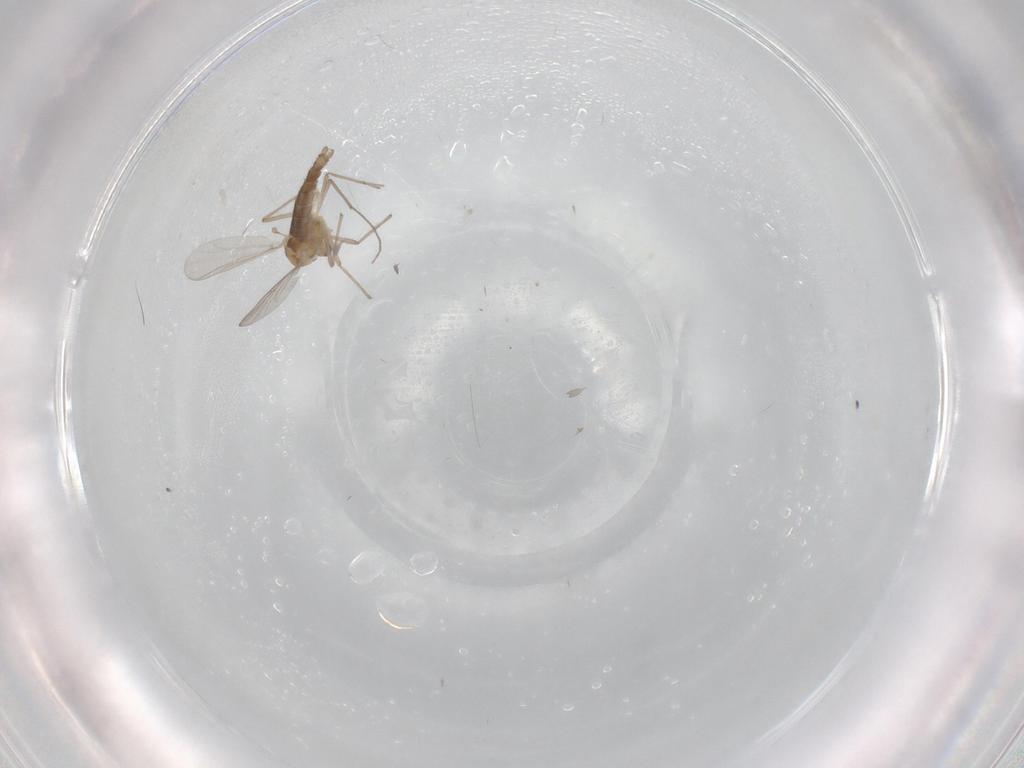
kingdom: Animalia
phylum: Arthropoda
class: Insecta
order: Diptera
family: Chironomidae
